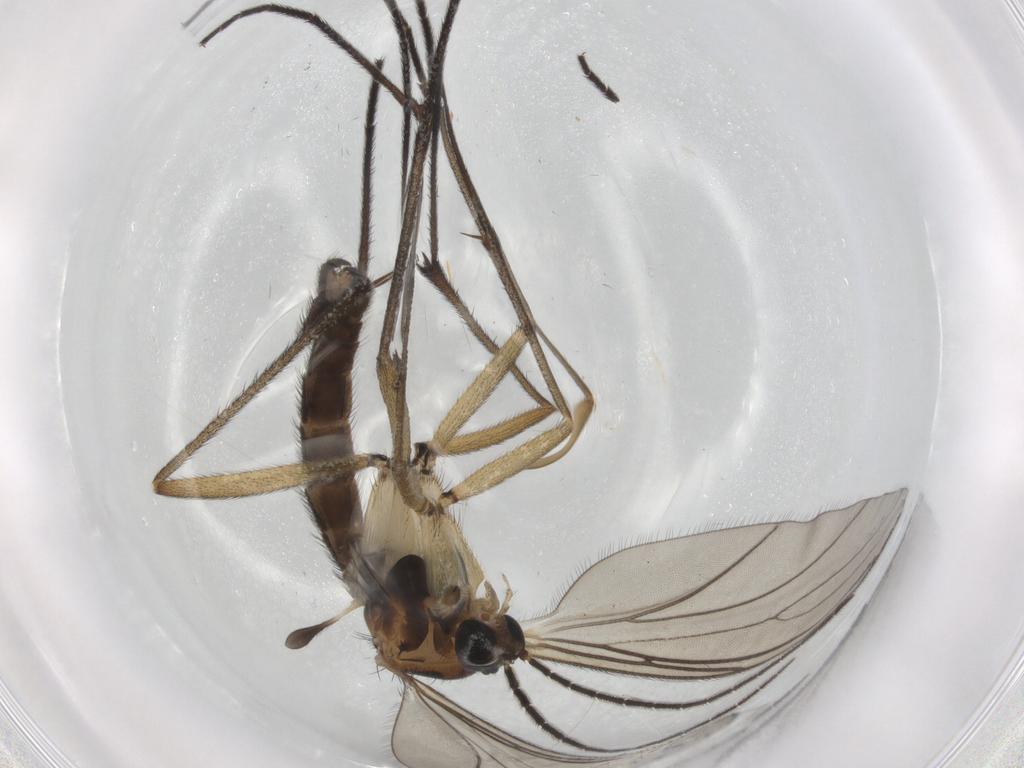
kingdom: Animalia
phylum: Arthropoda
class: Insecta
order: Diptera
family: Sciaridae
